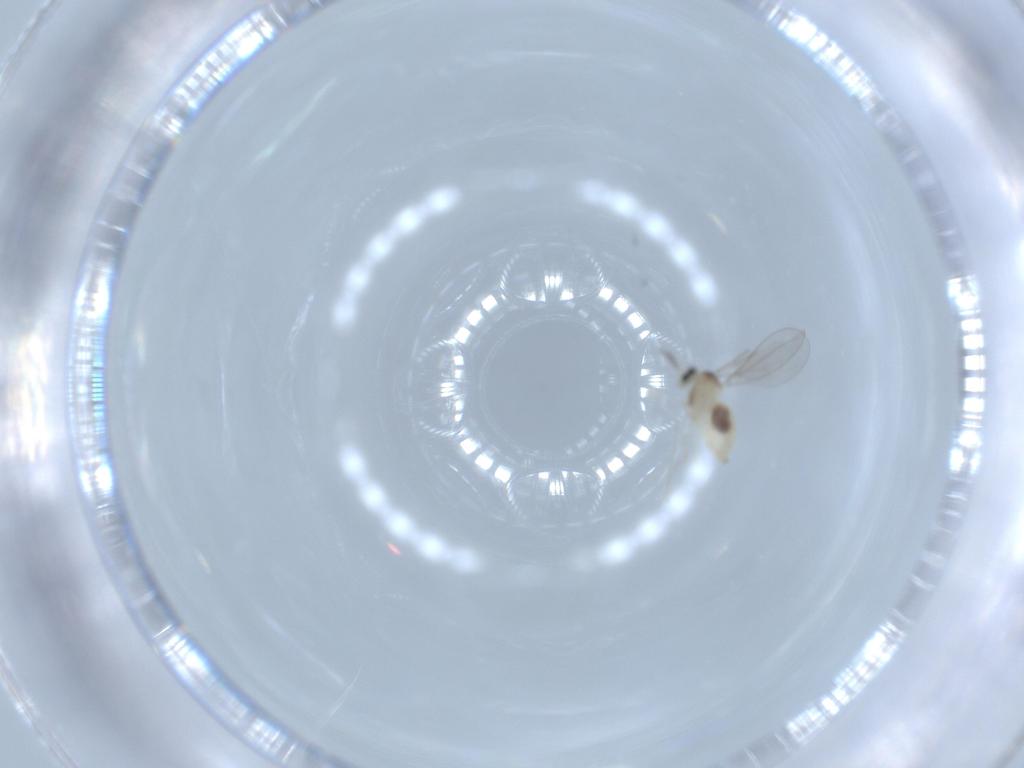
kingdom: Animalia
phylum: Arthropoda
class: Insecta
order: Diptera
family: Cecidomyiidae
